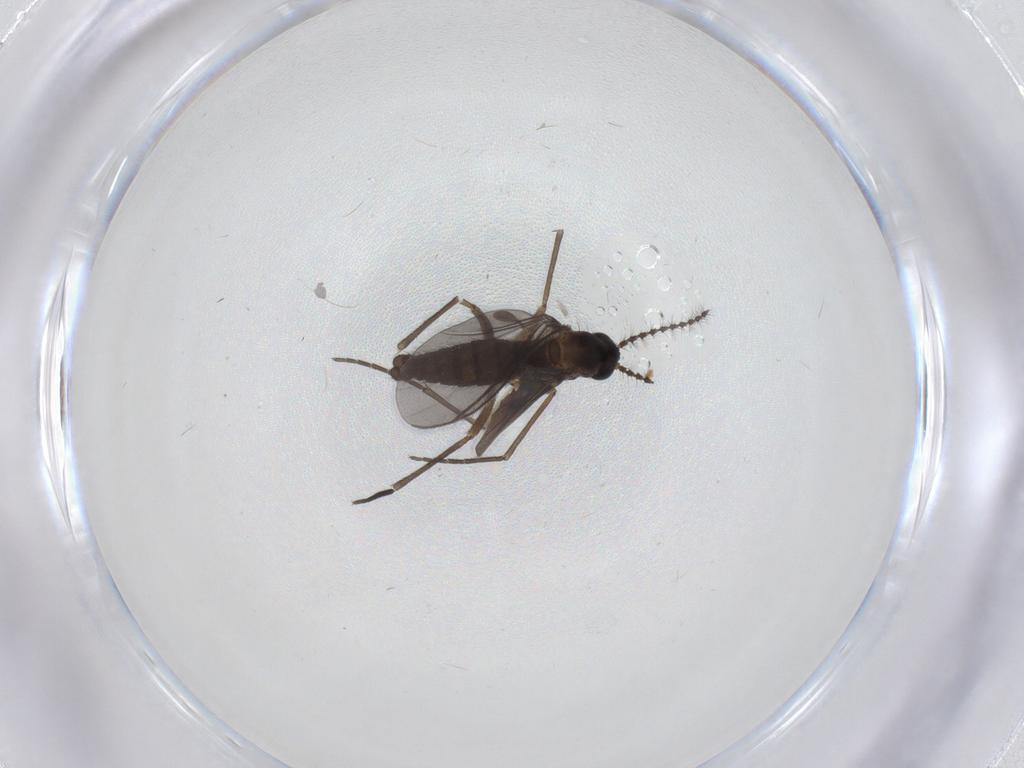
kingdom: Animalia
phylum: Arthropoda
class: Insecta
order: Diptera
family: Sciaridae
